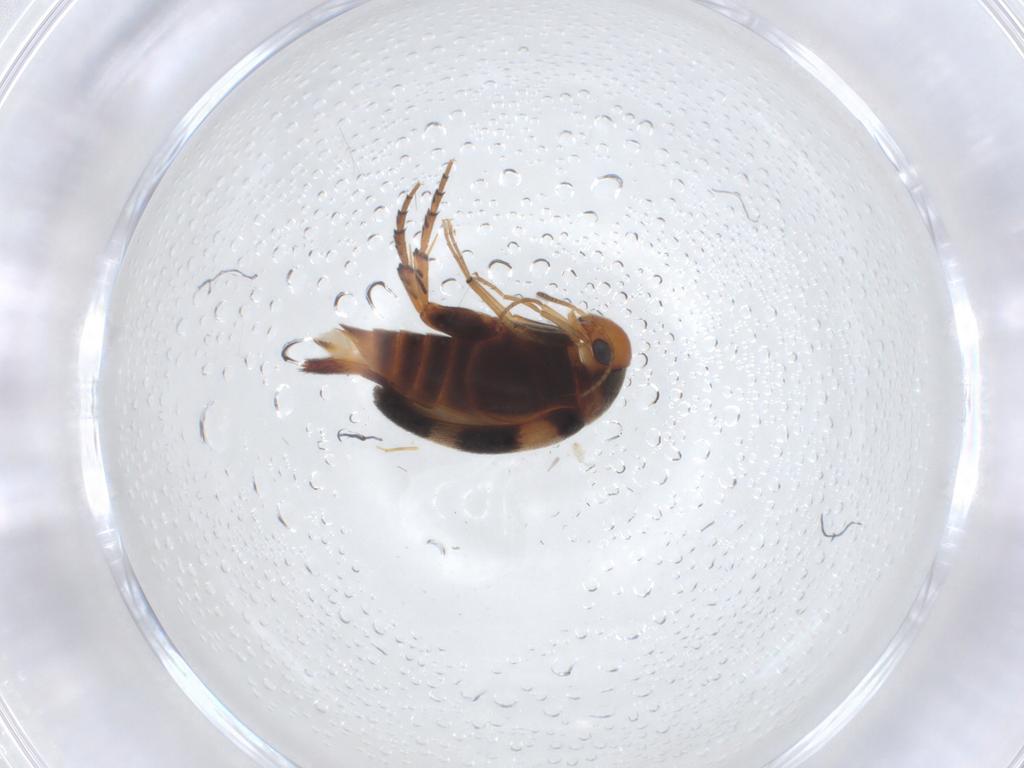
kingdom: Animalia
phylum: Arthropoda
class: Insecta
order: Coleoptera
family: Mordellidae
